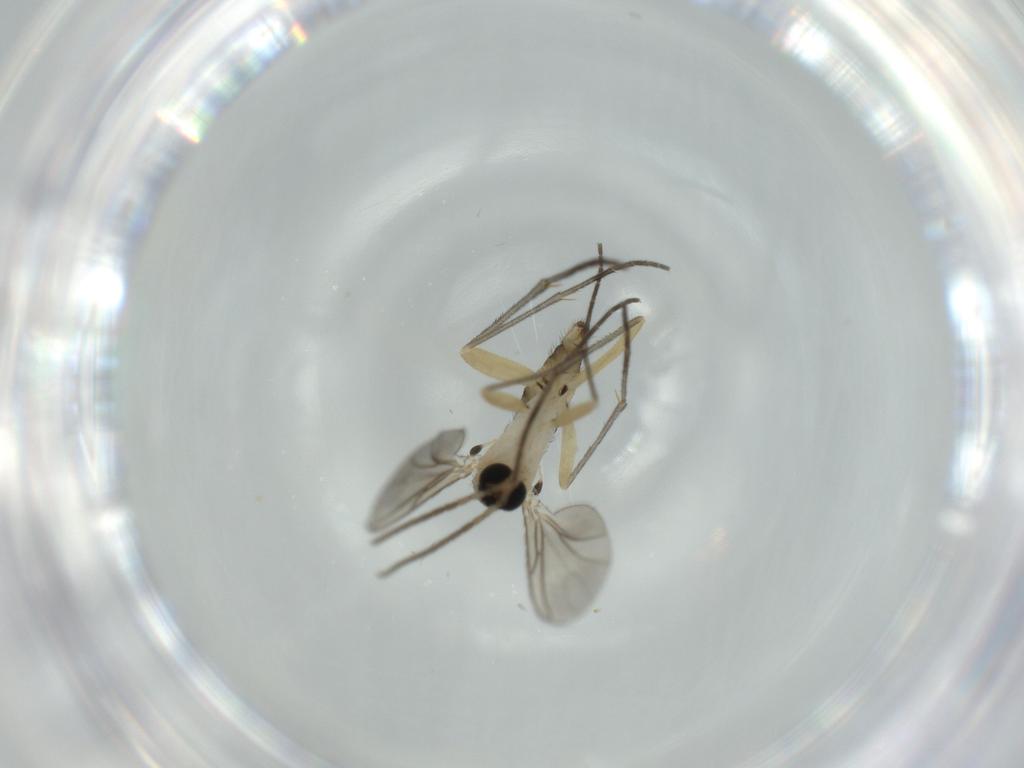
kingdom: Animalia
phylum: Arthropoda
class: Insecta
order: Diptera
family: Sciaridae
